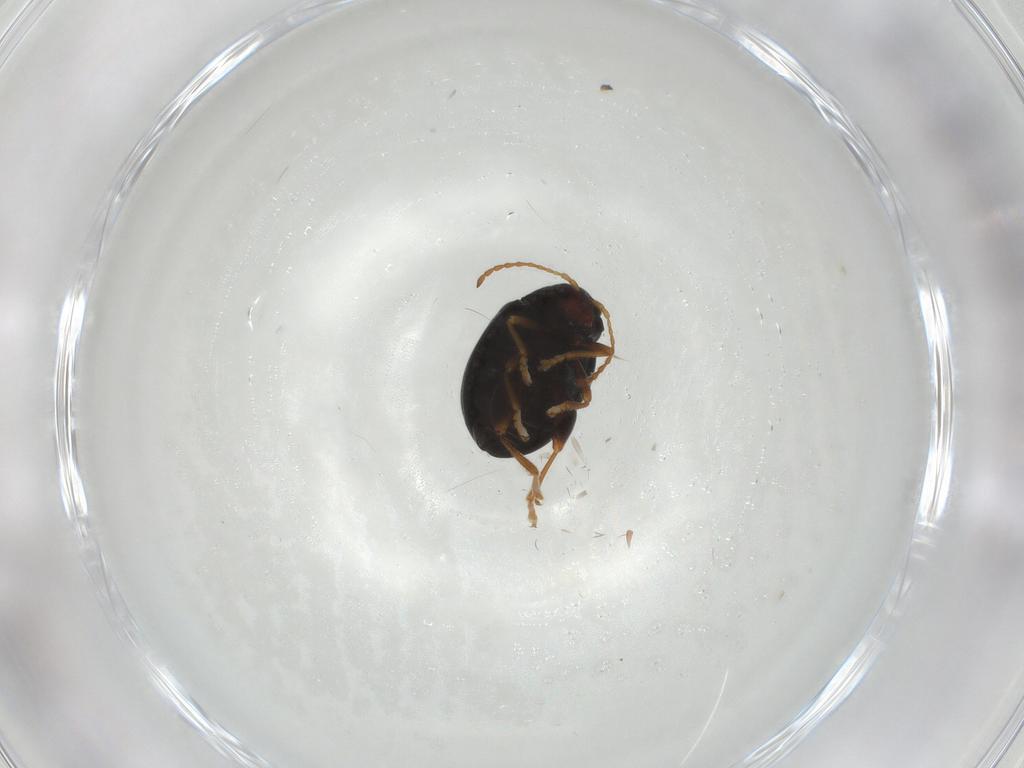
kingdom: Animalia
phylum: Arthropoda
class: Insecta
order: Coleoptera
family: Chrysomelidae
